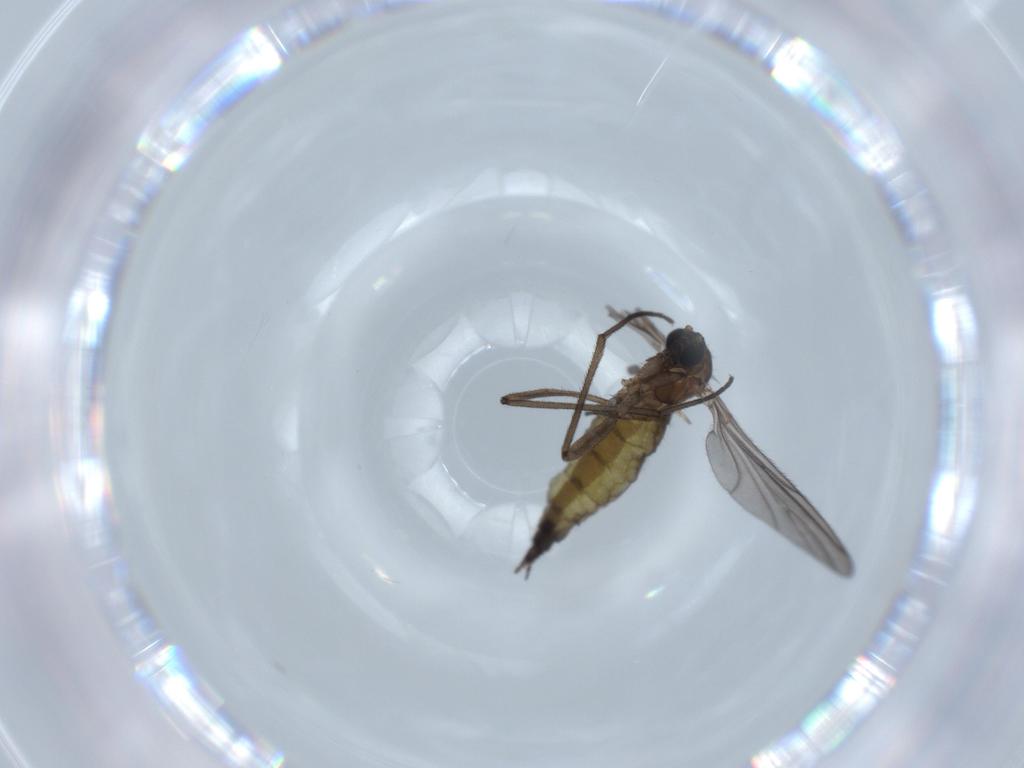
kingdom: Animalia
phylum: Arthropoda
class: Insecta
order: Diptera
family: Sciaridae
